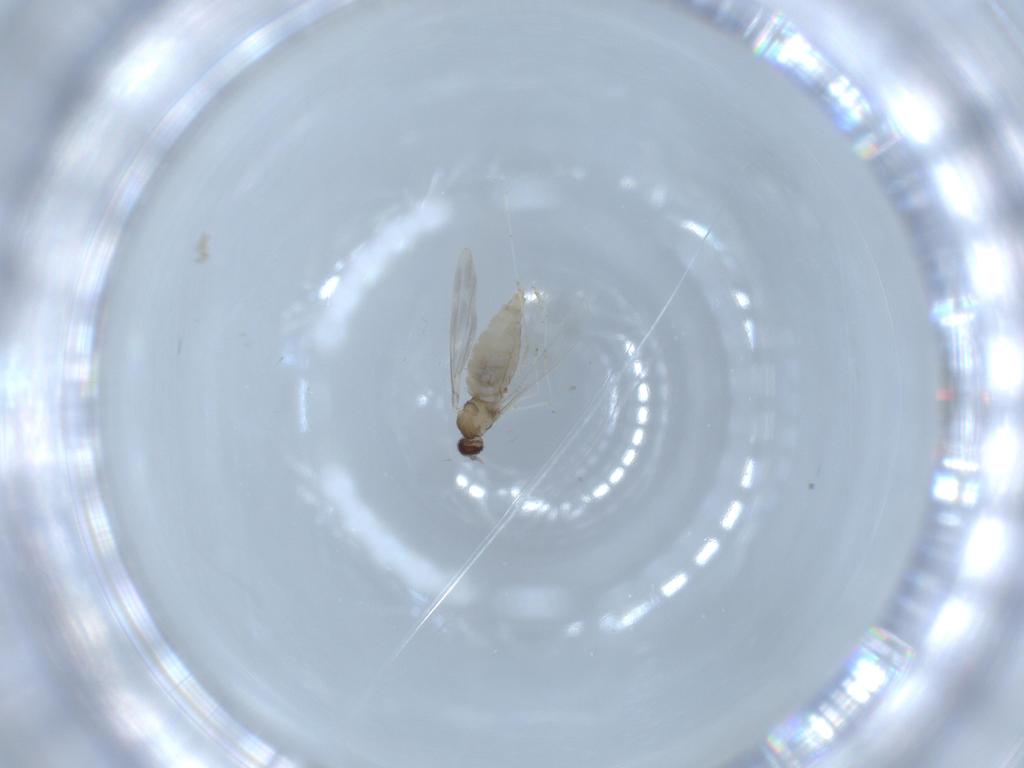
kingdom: Animalia
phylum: Arthropoda
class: Insecta
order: Diptera
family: Cecidomyiidae
